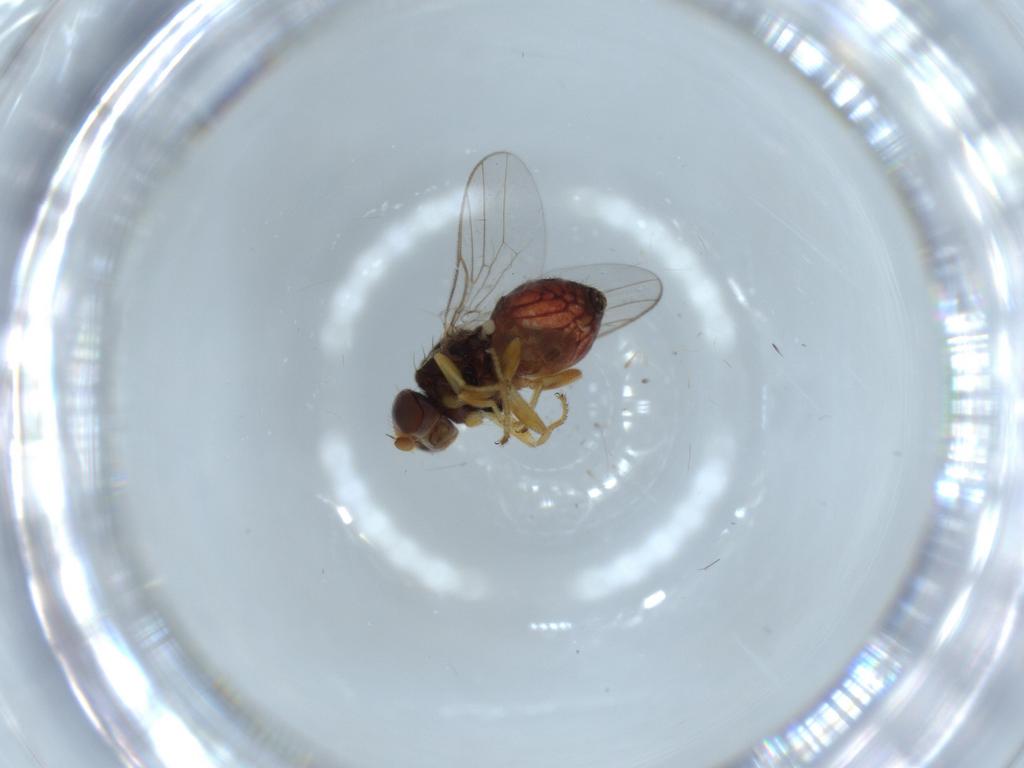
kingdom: Animalia
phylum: Arthropoda
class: Insecta
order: Diptera
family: Chloropidae
